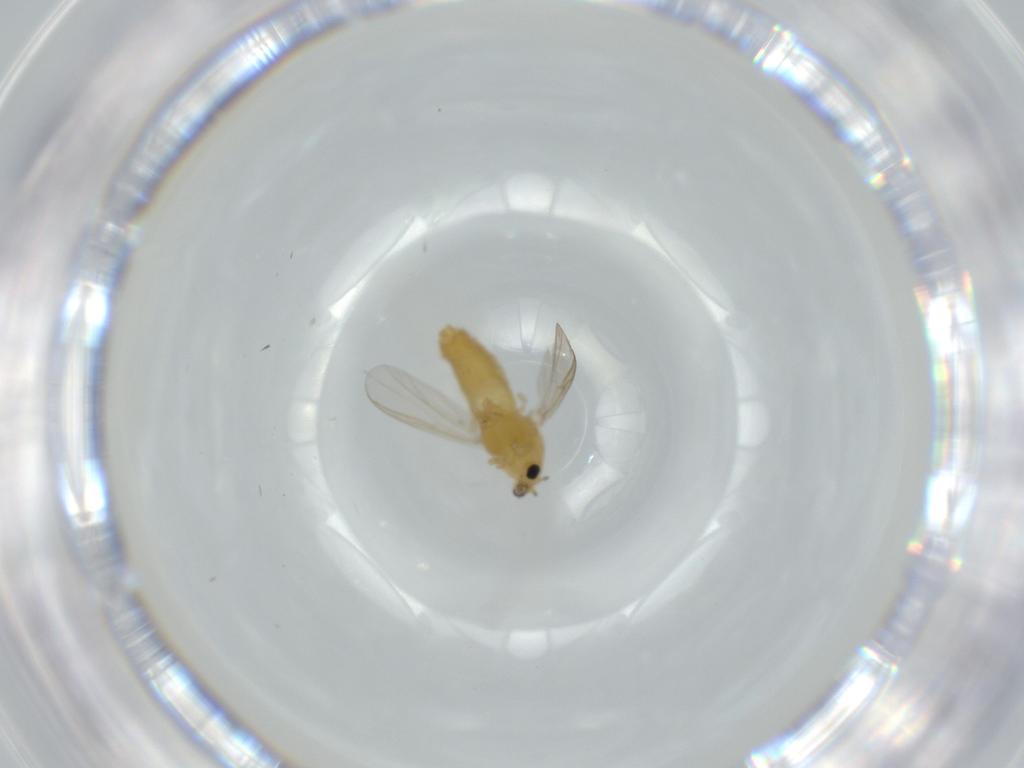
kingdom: Animalia
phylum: Arthropoda
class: Insecta
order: Diptera
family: Chironomidae
